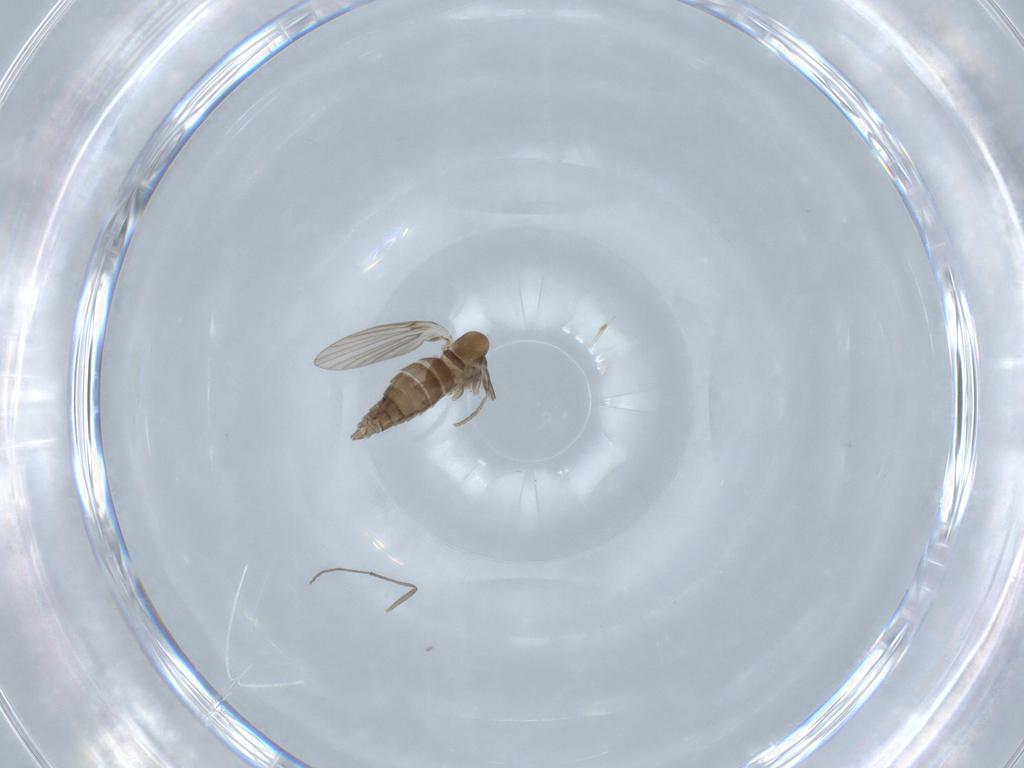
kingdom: Animalia
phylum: Arthropoda
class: Insecta
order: Diptera
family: Psychodidae
